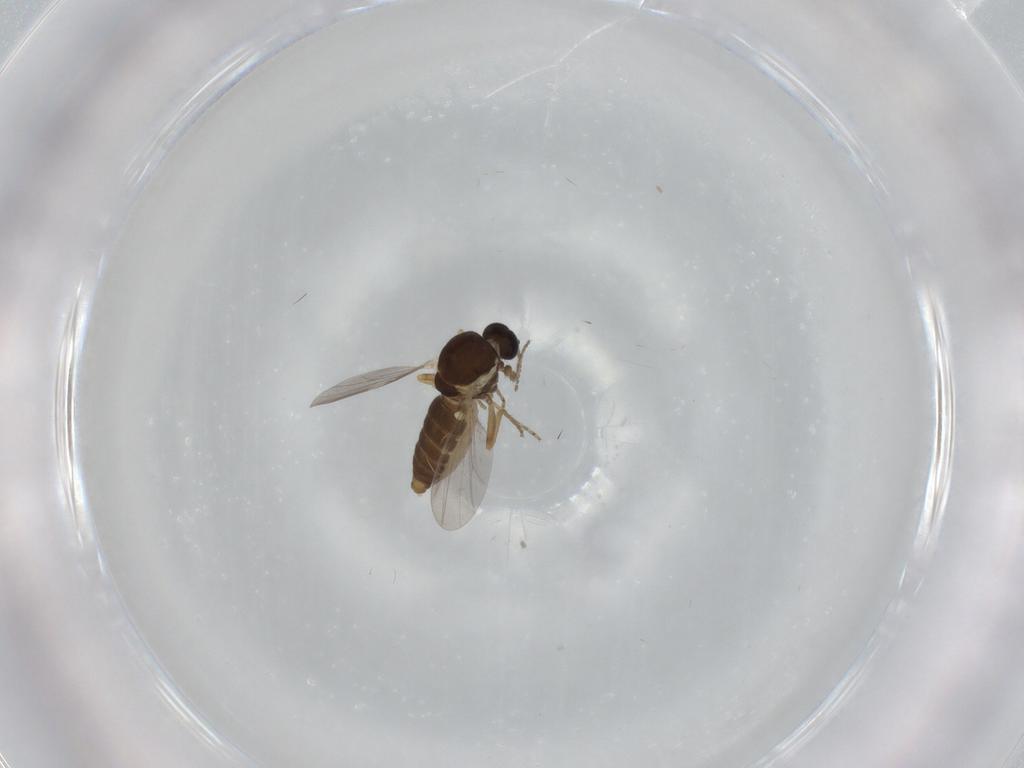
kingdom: Animalia
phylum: Arthropoda
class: Insecta
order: Diptera
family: Ceratopogonidae
